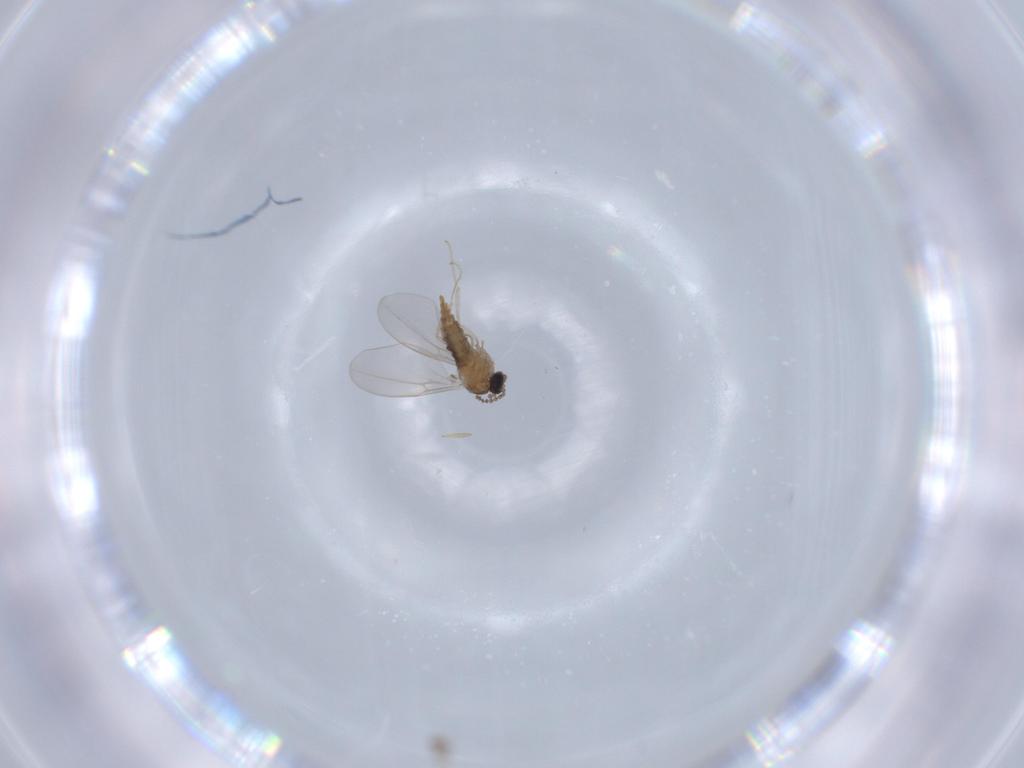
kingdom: Animalia
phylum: Arthropoda
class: Insecta
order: Diptera
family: Cecidomyiidae
